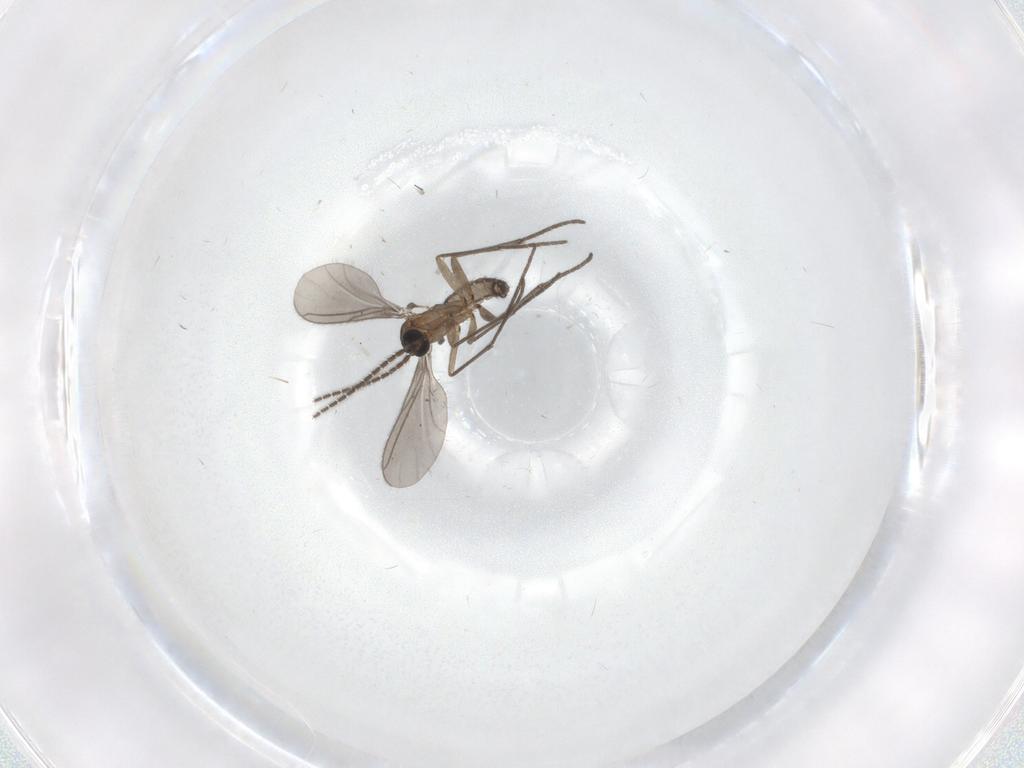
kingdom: Animalia
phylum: Arthropoda
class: Insecta
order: Diptera
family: Sciaridae
